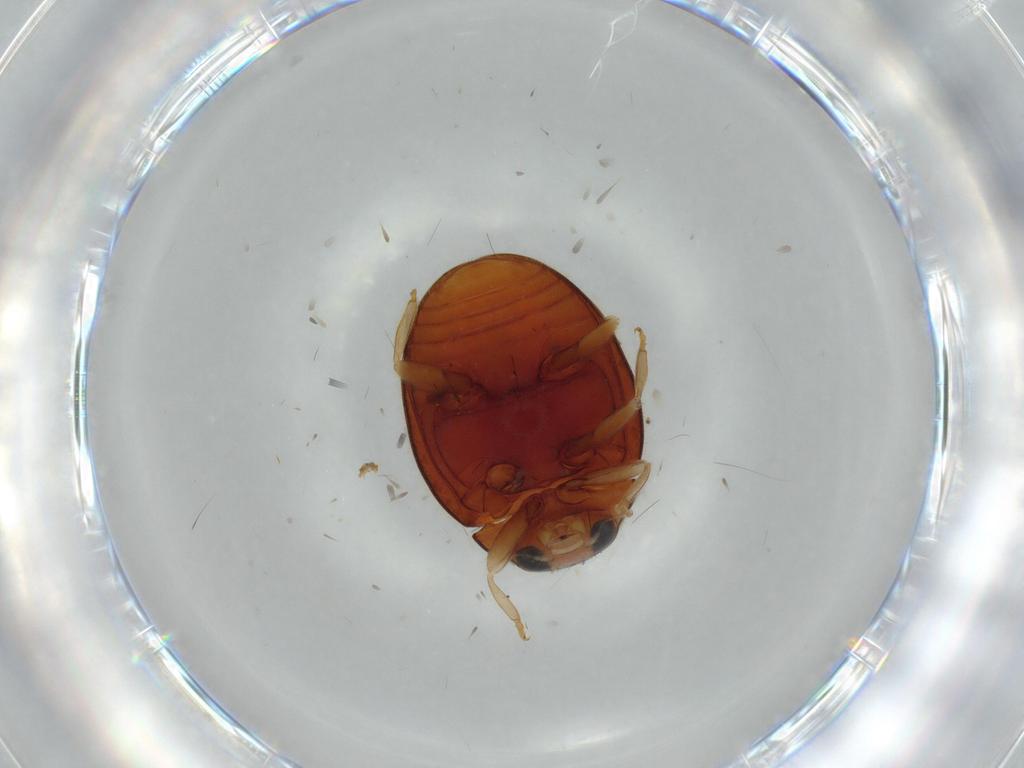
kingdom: Animalia
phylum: Arthropoda
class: Insecta
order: Coleoptera
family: Coccinellidae
